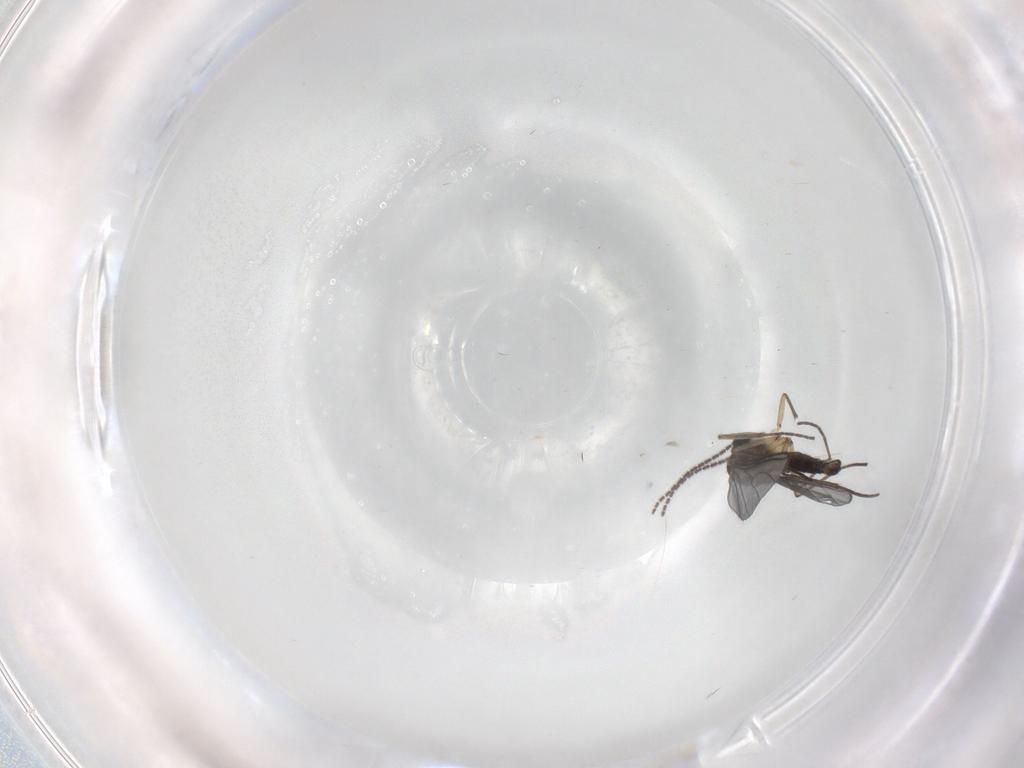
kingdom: Animalia
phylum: Arthropoda
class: Insecta
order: Diptera
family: Sciaridae
